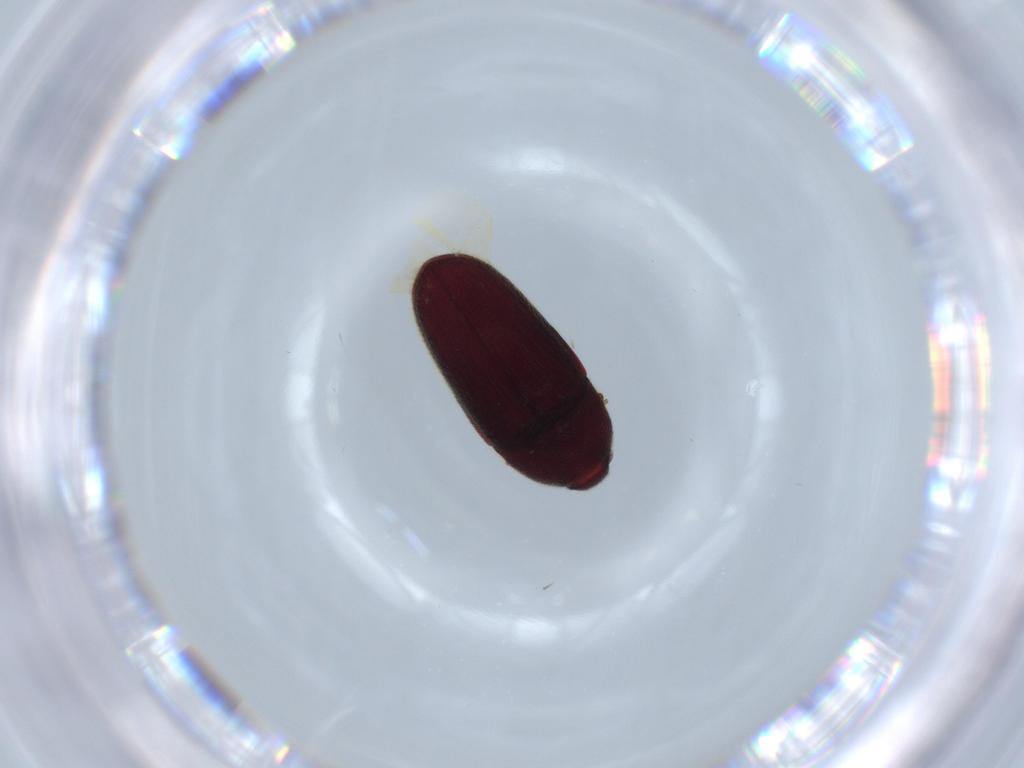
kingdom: Animalia
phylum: Arthropoda
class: Insecta
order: Coleoptera
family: Throscidae
